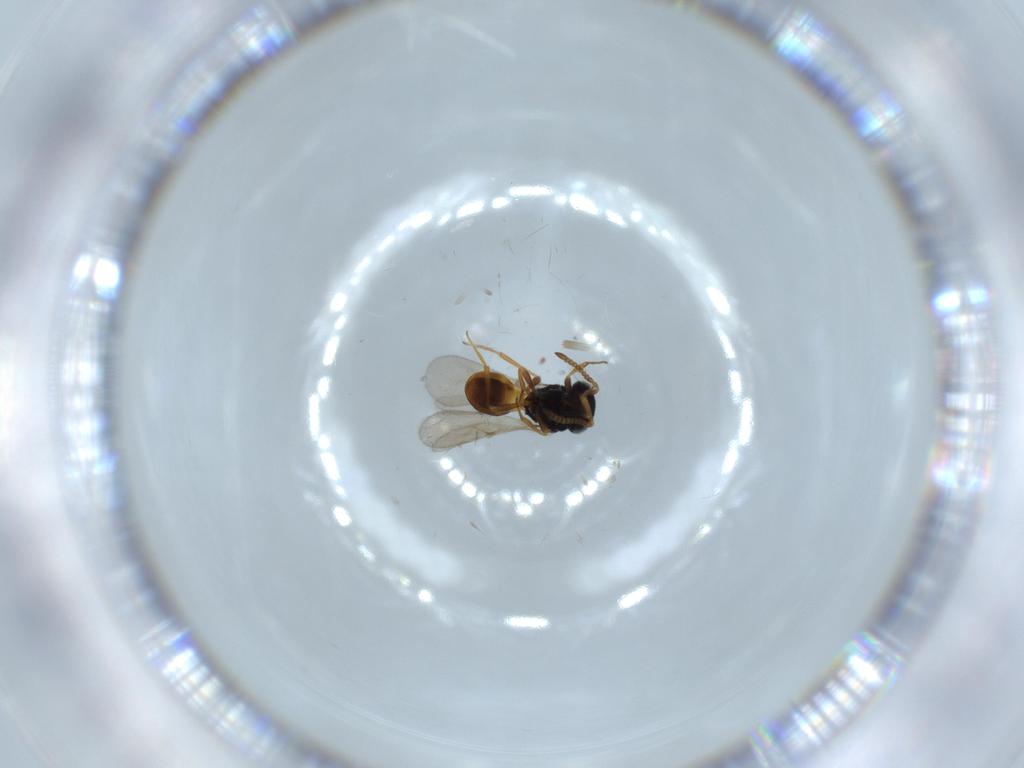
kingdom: Animalia
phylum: Arthropoda
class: Insecta
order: Hymenoptera
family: Scelionidae
